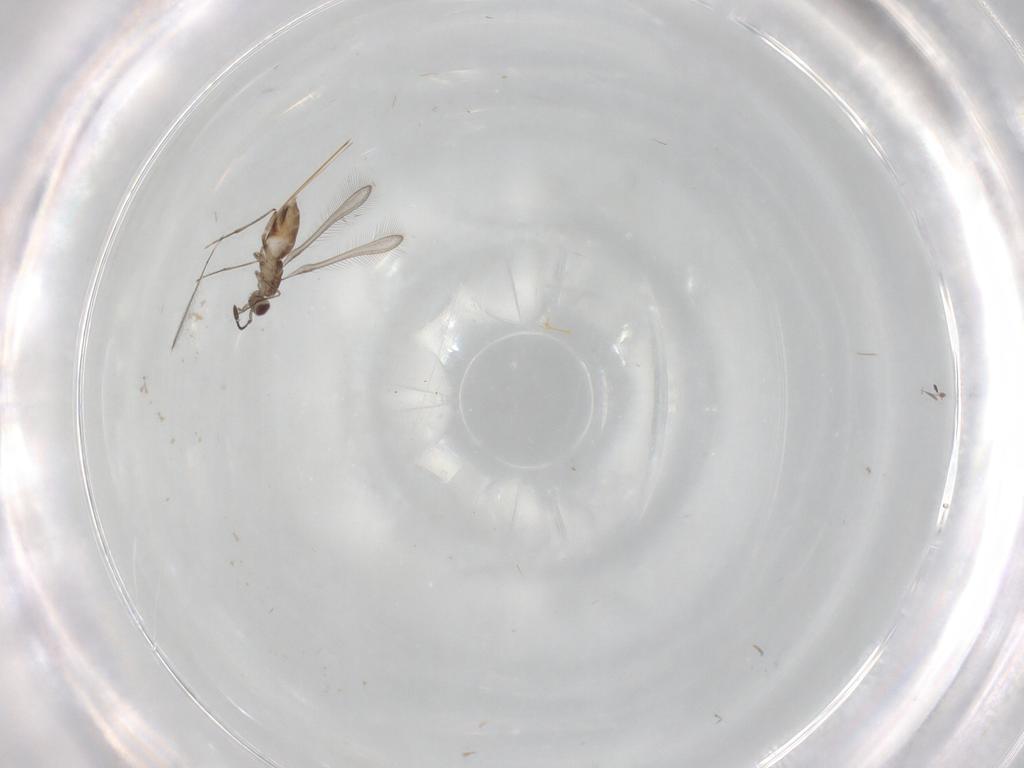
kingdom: Animalia
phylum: Arthropoda
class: Insecta
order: Hymenoptera
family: Mymaridae
